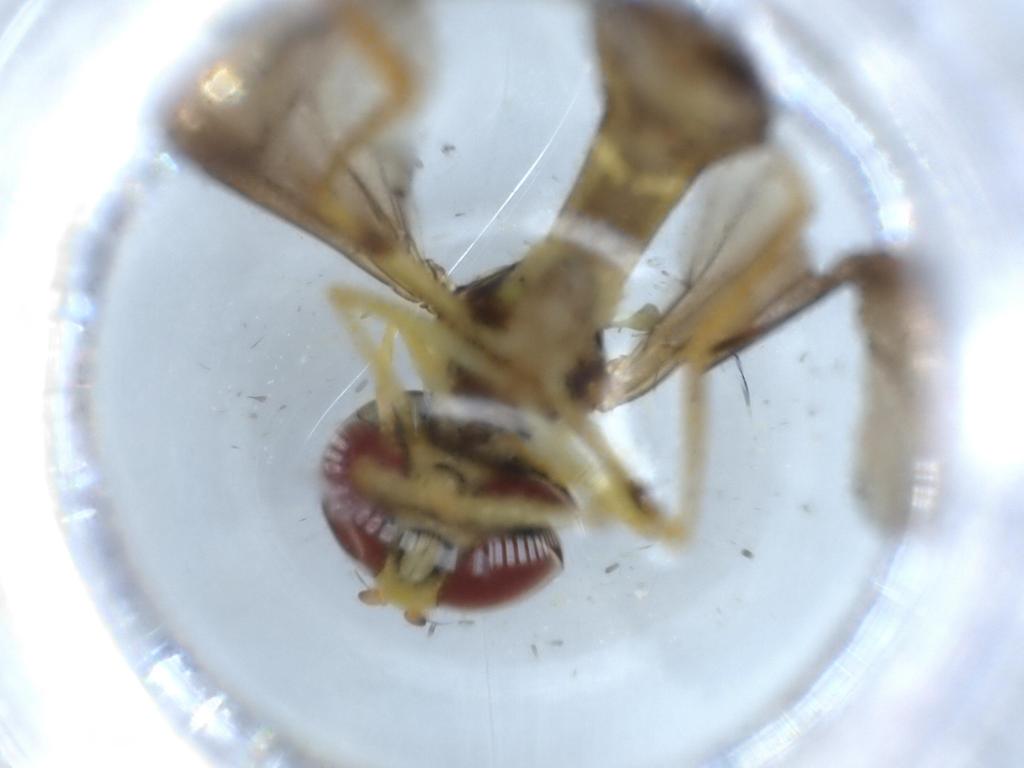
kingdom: Animalia
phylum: Arthropoda
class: Insecta
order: Diptera
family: Syrphidae
